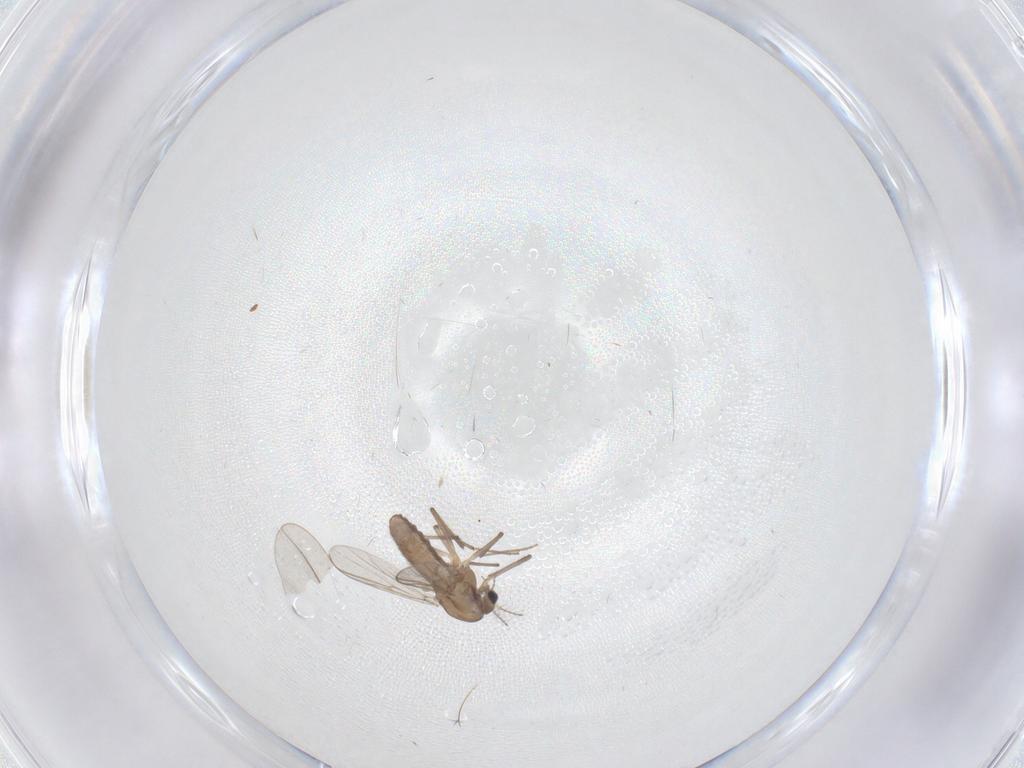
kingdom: Animalia
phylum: Arthropoda
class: Insecta
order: Diptera
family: Cecidomyiidae
